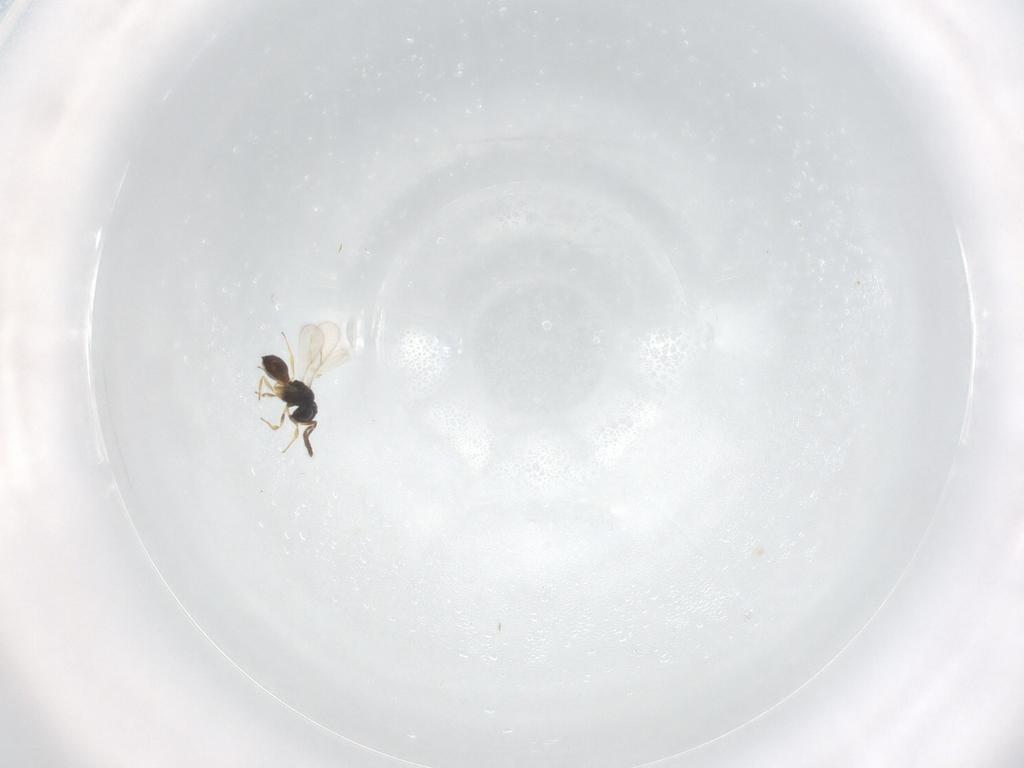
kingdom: Animalia
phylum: Arthropoda
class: Insecta
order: Hymenoptera
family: Scelionidae
